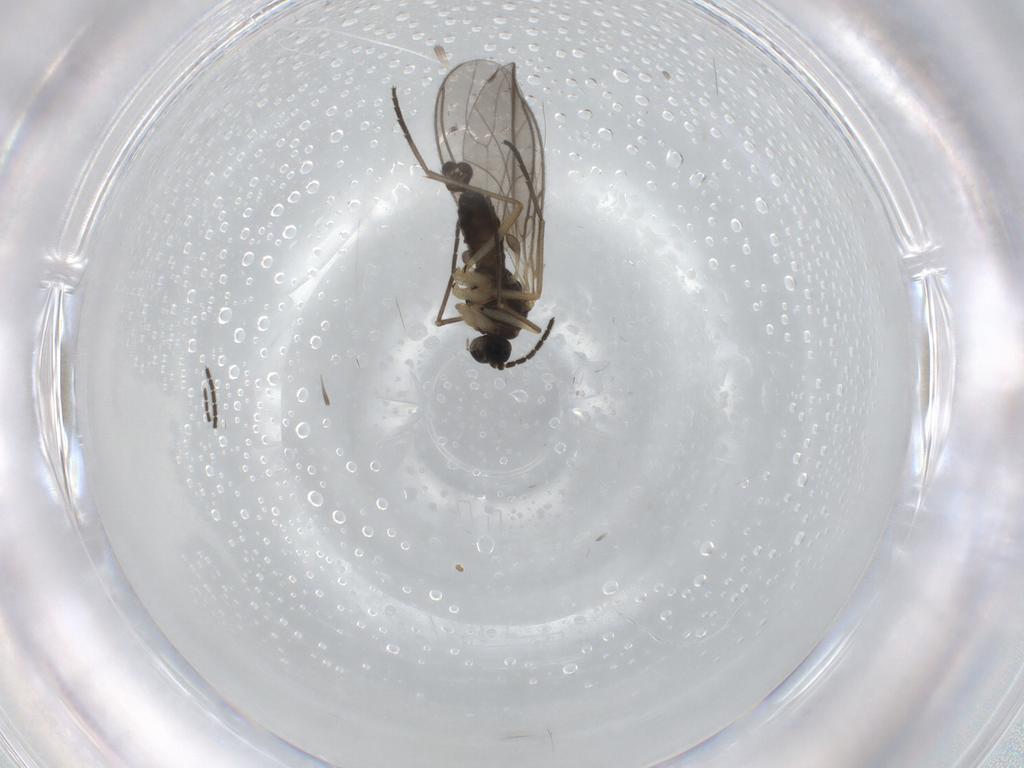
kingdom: Animalia
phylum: Arthropoda
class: Insecta
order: Diptera
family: Sciaridae
